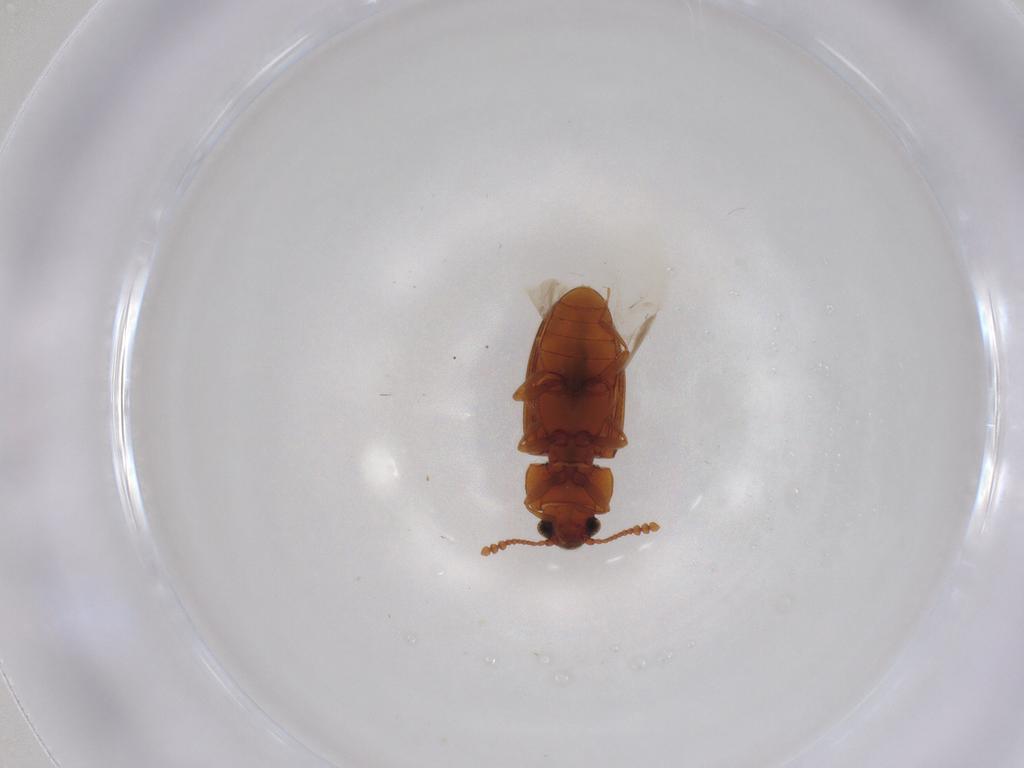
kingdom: Animalia
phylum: Arthropoda
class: Insecta
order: Coleoptera
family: Erotylidae
